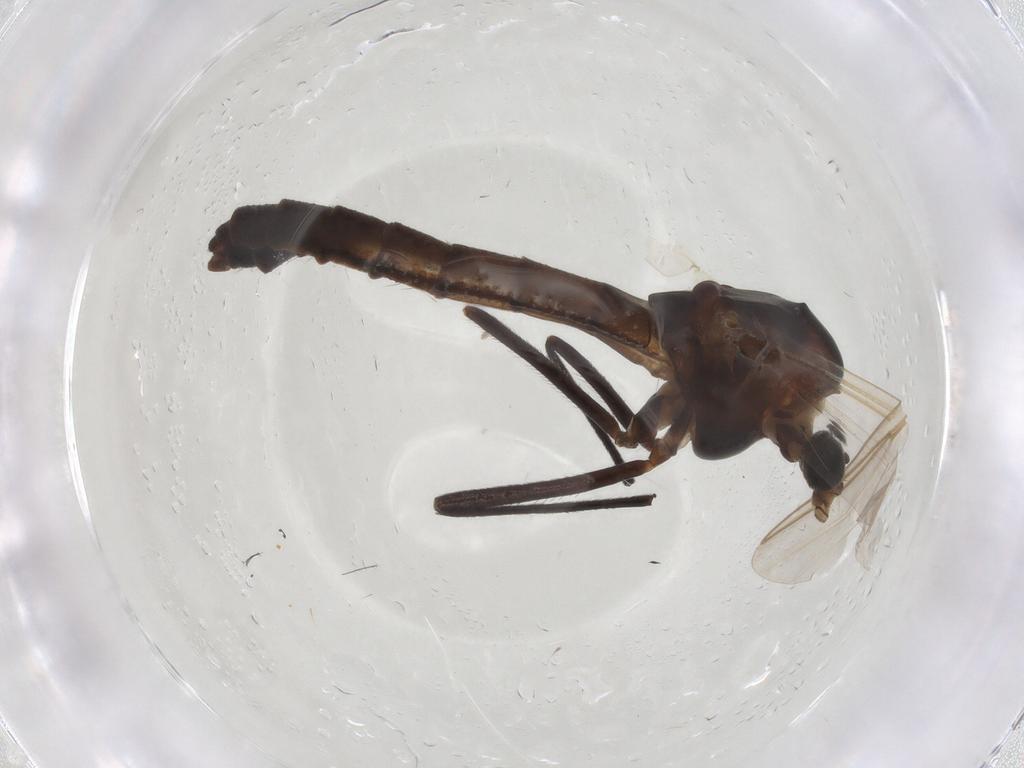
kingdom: Animalia
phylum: Arthropoda
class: Insecta
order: Diptera
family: Chironomidae
